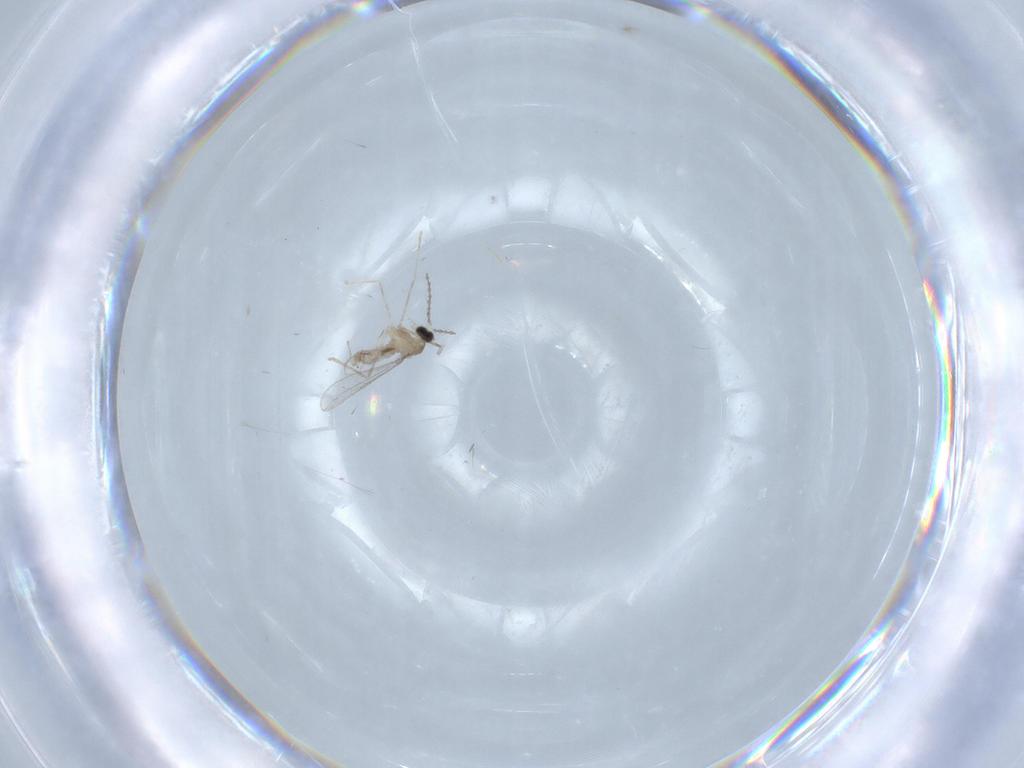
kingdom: Animalia
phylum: Arthropoda
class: Insecta
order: Diptera
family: Cecidomyiidae
